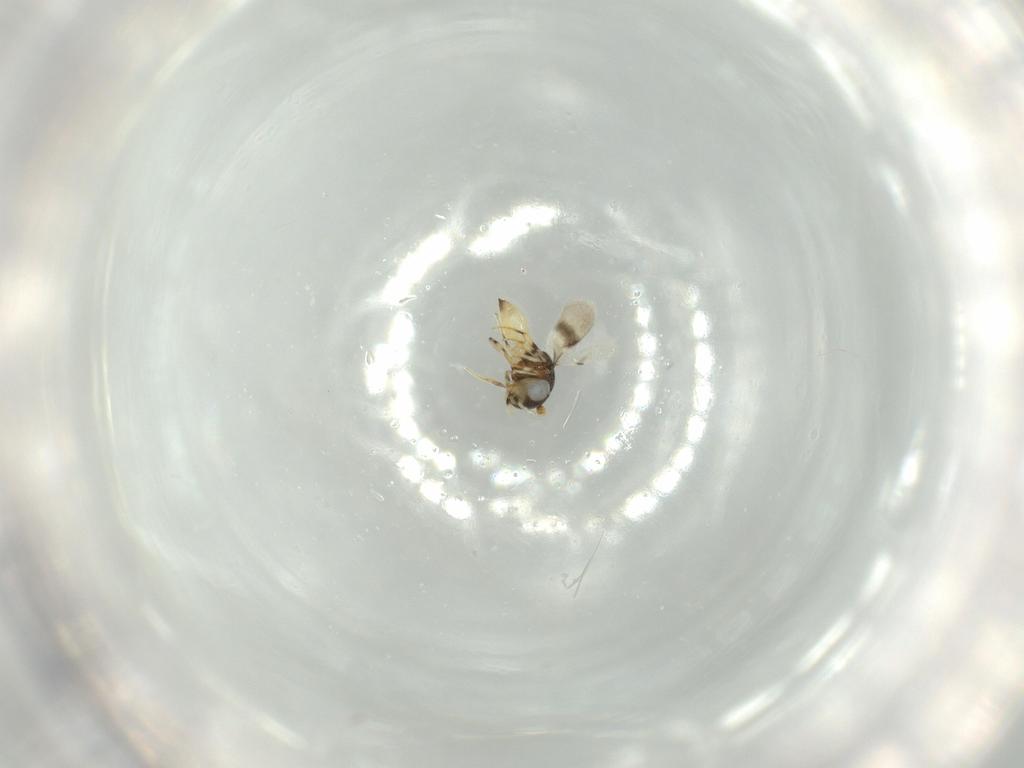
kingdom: Animalia
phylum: Arthropoda
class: Insecta
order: Hymenoptera
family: Scelionidae
